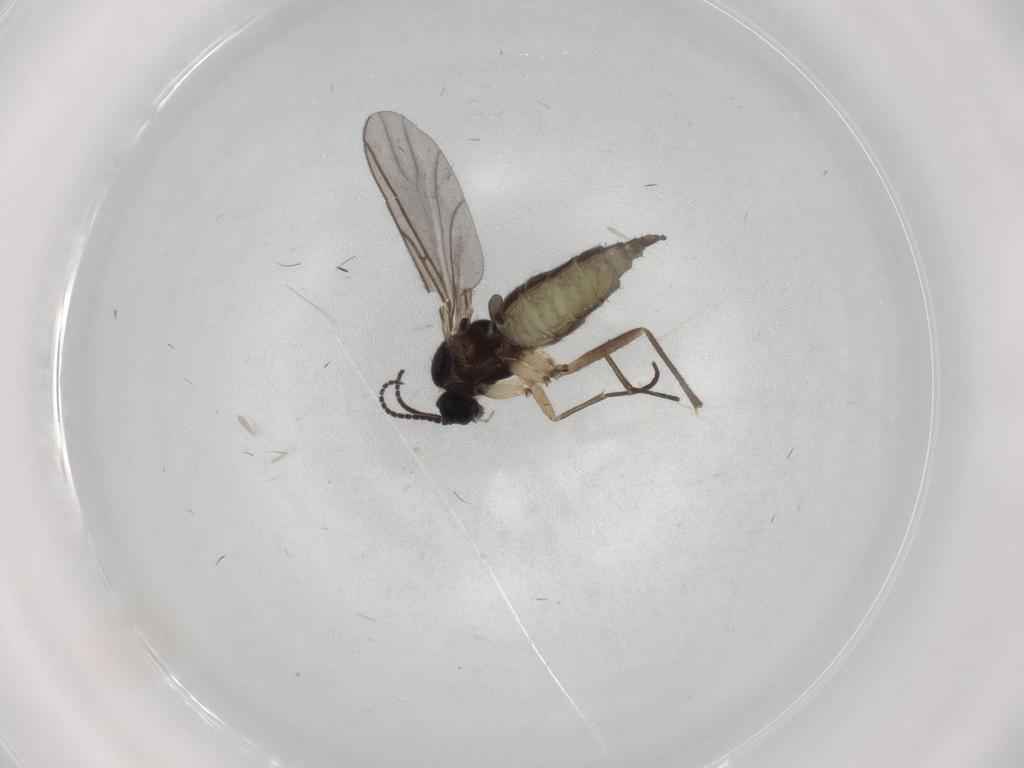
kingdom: Animalia
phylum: Arthropoda
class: Insecta
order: Diptera
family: Sciaridae
